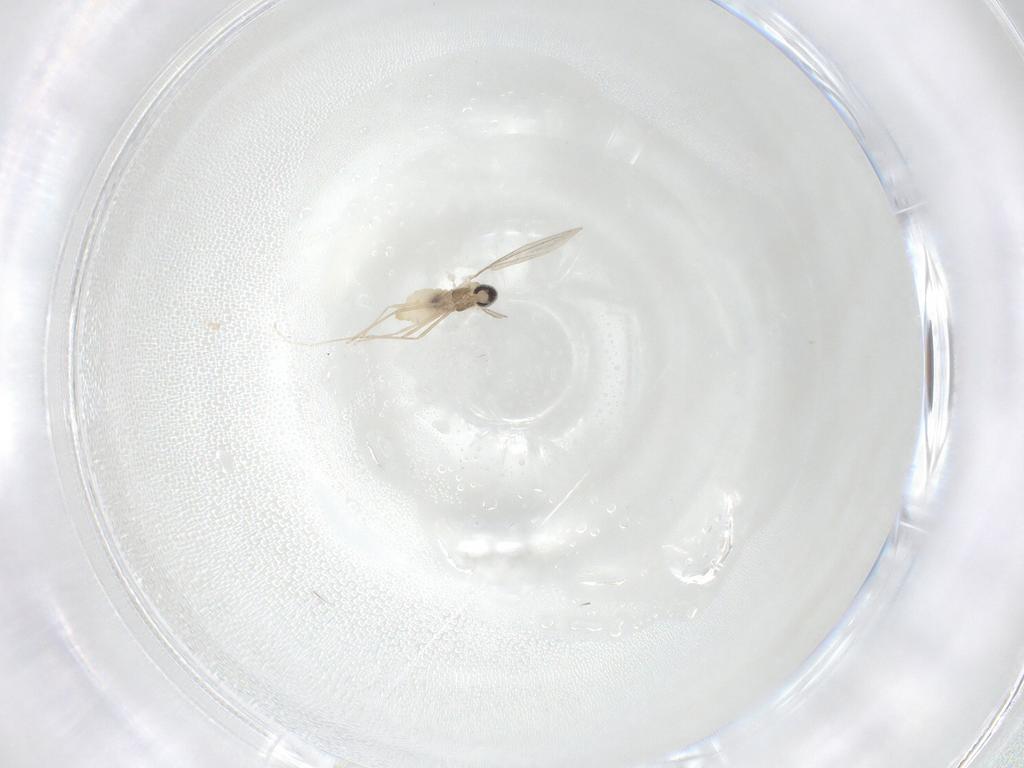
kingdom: Animalia
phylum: Arthropoda
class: Insecta
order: Diptera
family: Cecidomyiidae
